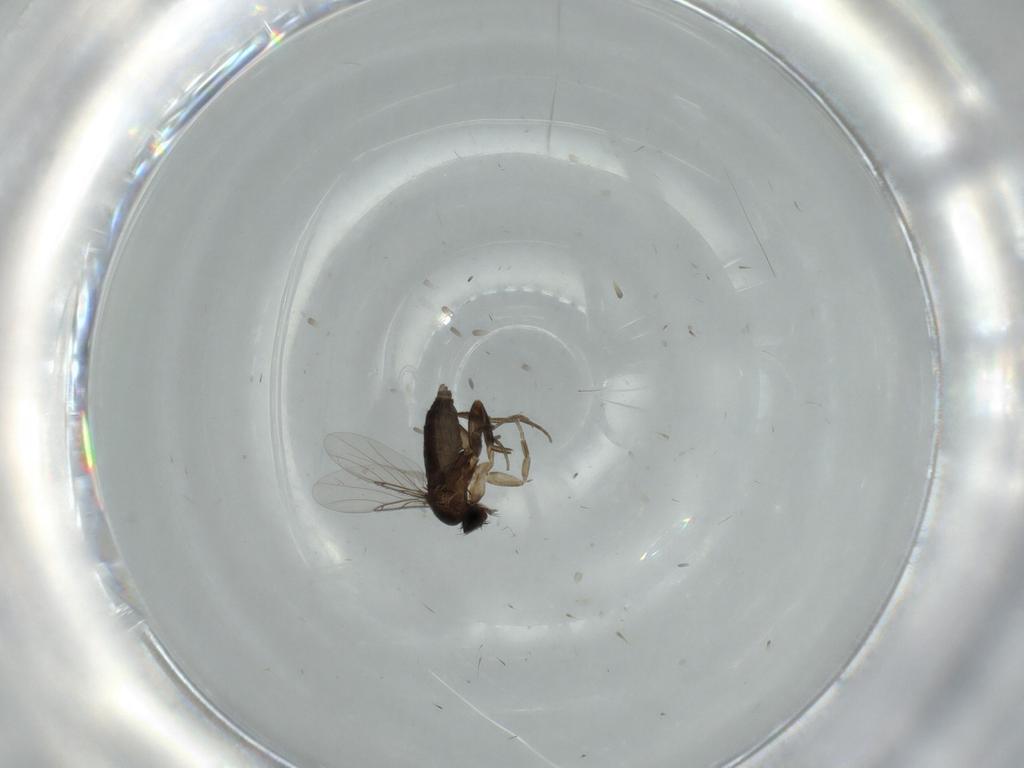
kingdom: Animalia
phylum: Arthropoda
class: Insecta
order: Diptera
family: Phoridae
